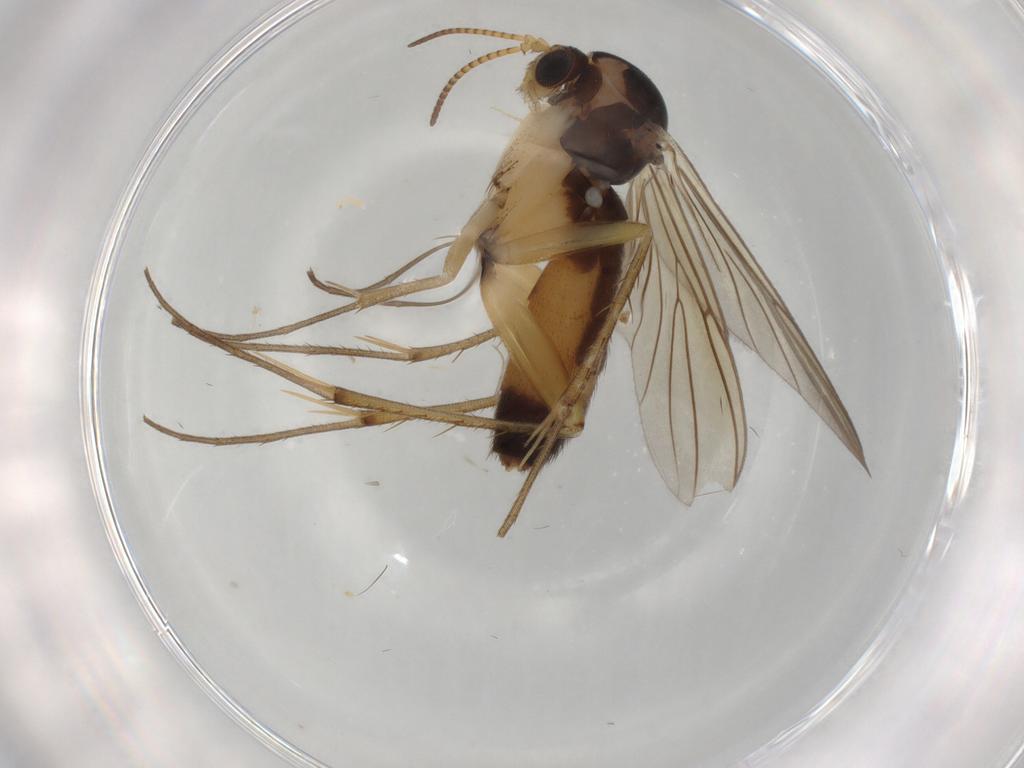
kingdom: Animalia
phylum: Arthropoda
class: Insecta
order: Diptera
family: Mycetophilidae
